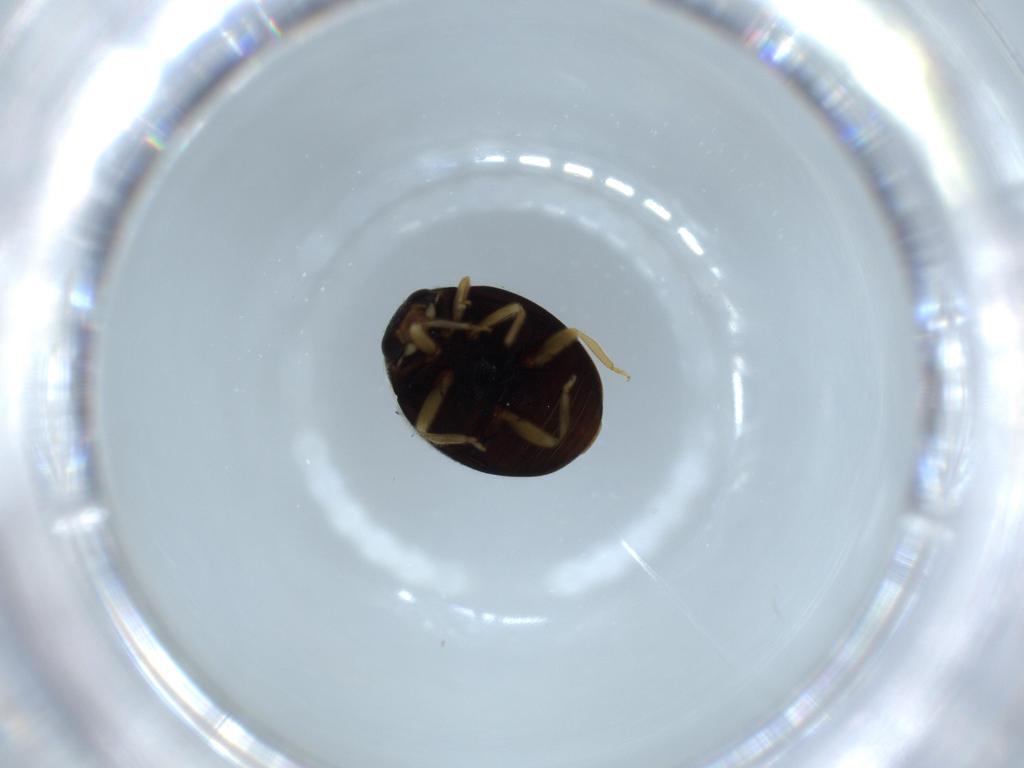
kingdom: Animalia
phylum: Arthropoda
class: Insecta
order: Coleoptera
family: Coccinellidae
